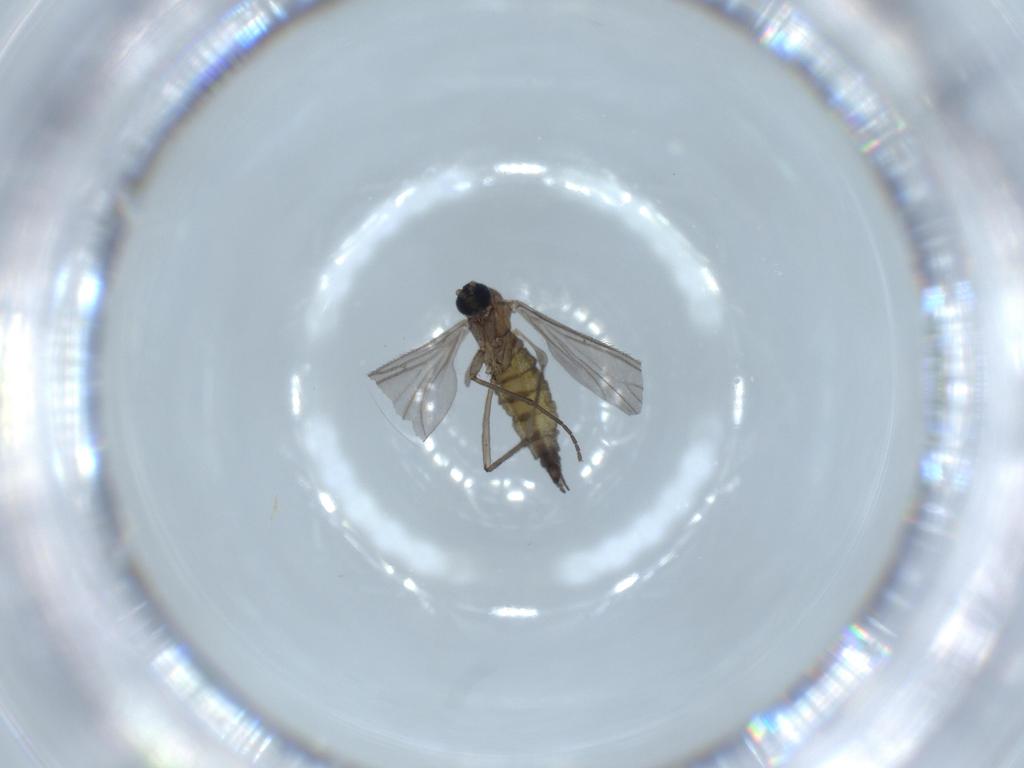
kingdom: Animalia
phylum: Arthropoda
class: Insecta
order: Diptera
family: Sciaridae
